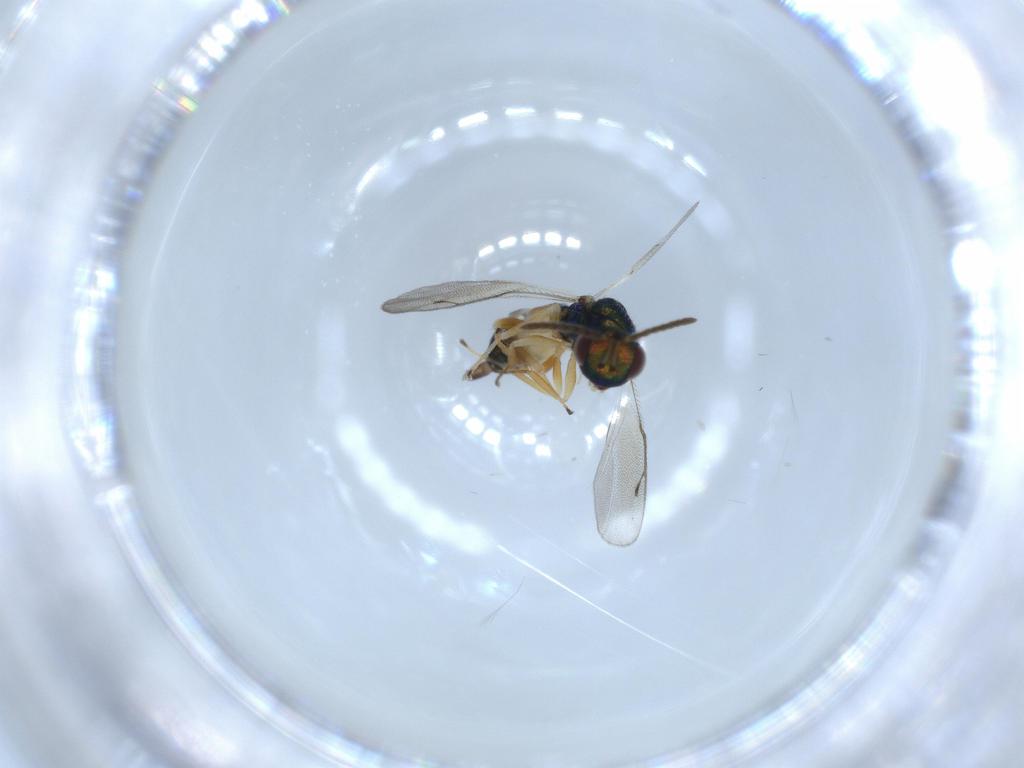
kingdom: Animalia
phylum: Arthropoda
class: Insecta
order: Hymenoptera
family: Pteromalidae
